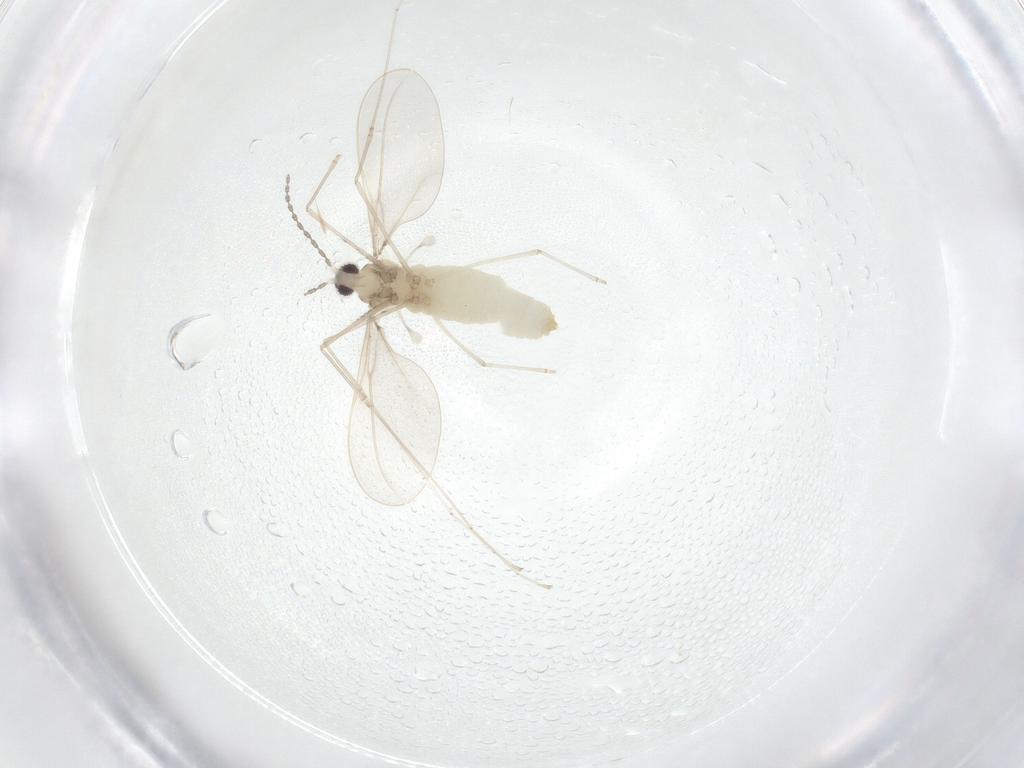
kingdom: Animalia
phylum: Arthropoda
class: Insecta
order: Diptera
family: Cecidomyiidae
